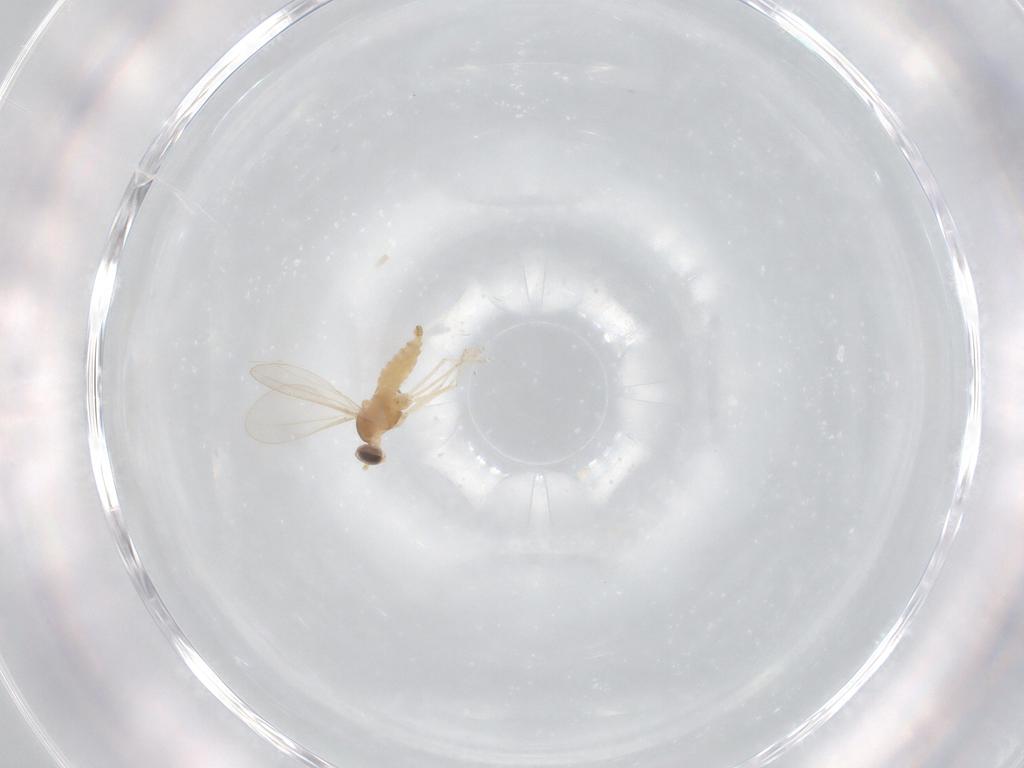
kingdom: Animalia
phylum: Arthropoda
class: Insecta
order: Diptera
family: Cecidomyiidae
